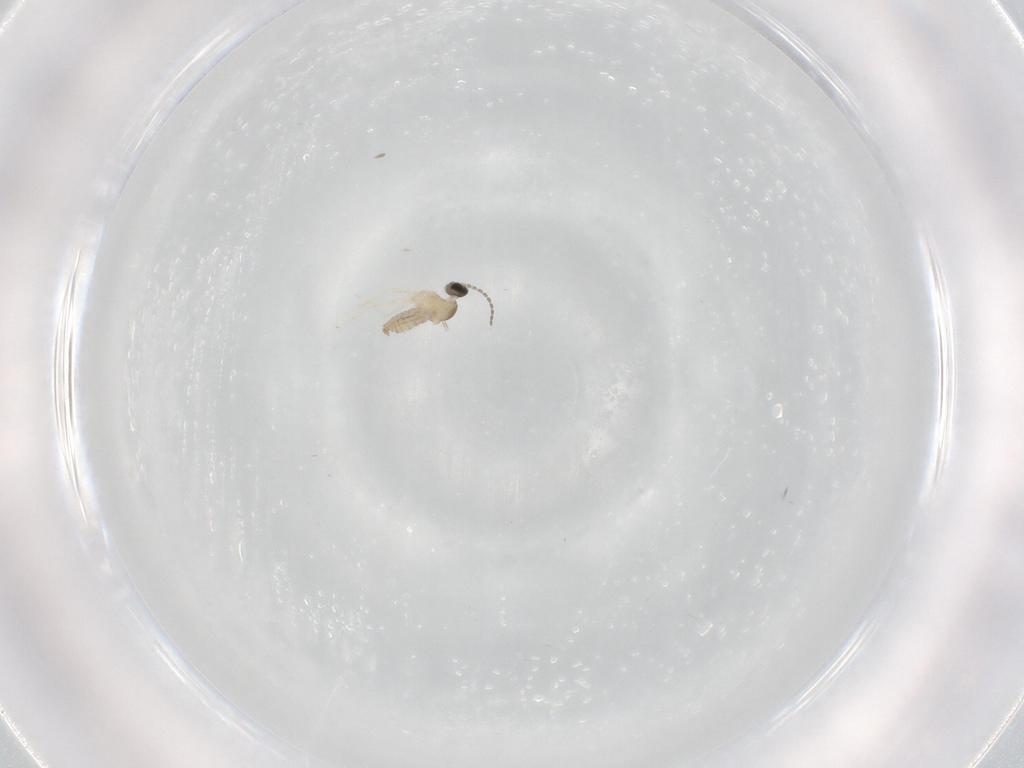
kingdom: Animalia
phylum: Arthropoda
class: Insecta
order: Diptera
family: Cecidomyiidae
